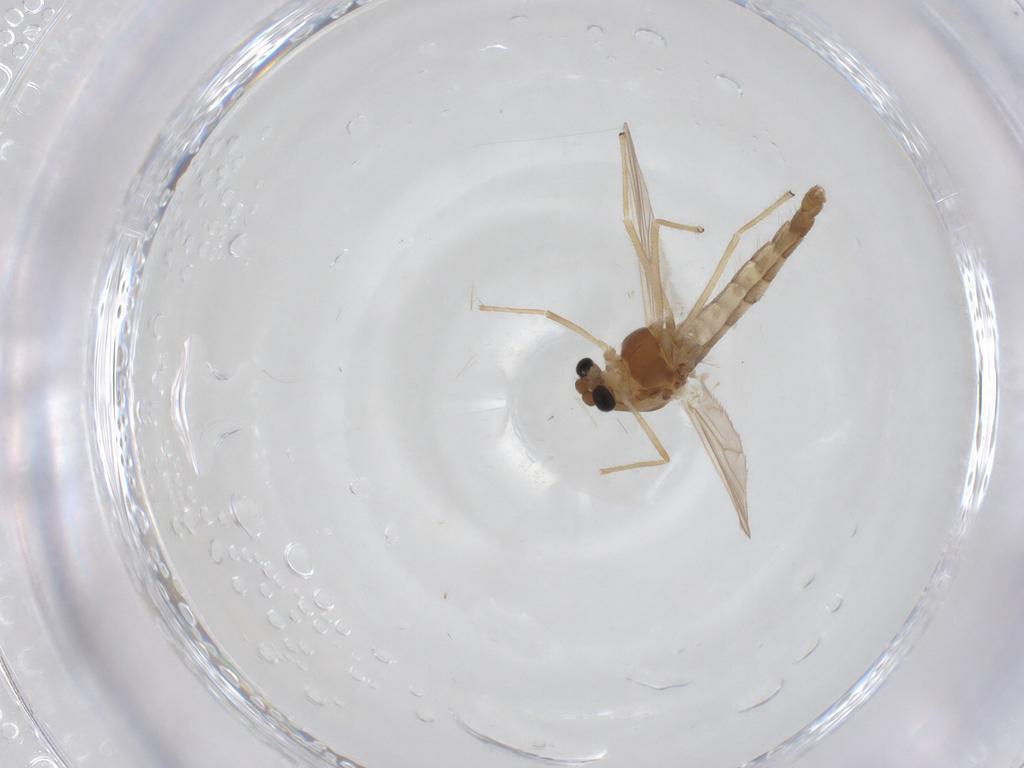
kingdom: Animalia
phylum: Arthropoda
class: Insecta
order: Diptera
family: Chironomidae
